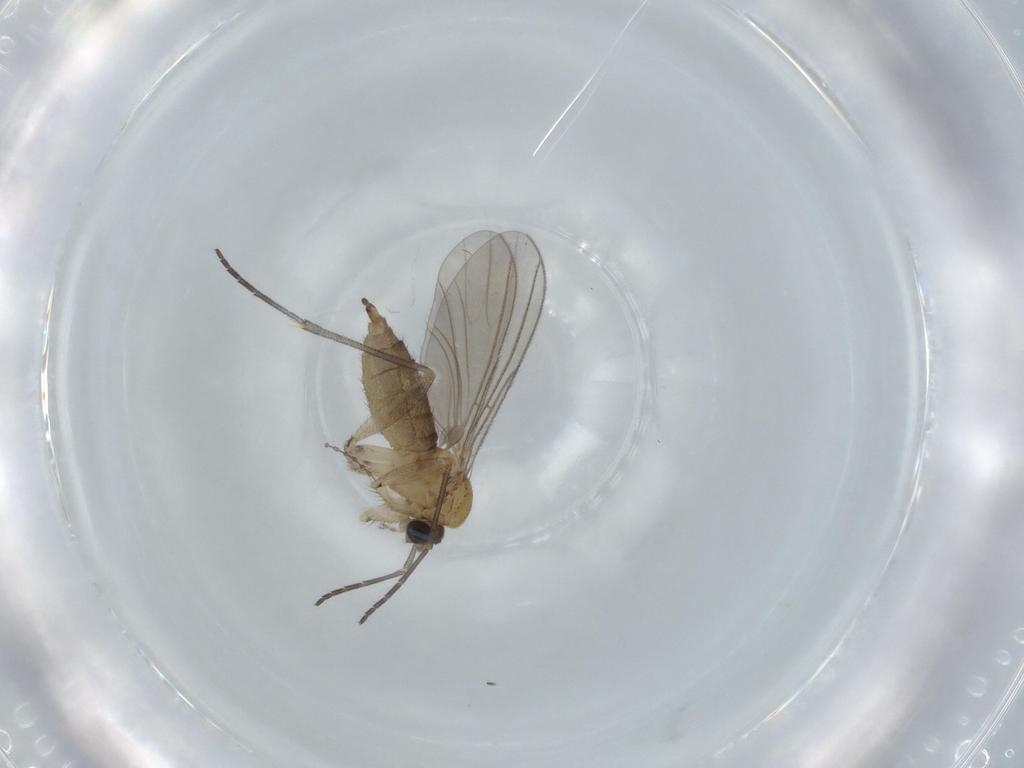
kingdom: Animalia
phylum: Arthropoda
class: Insecta
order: Diptera
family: Sciaridae
